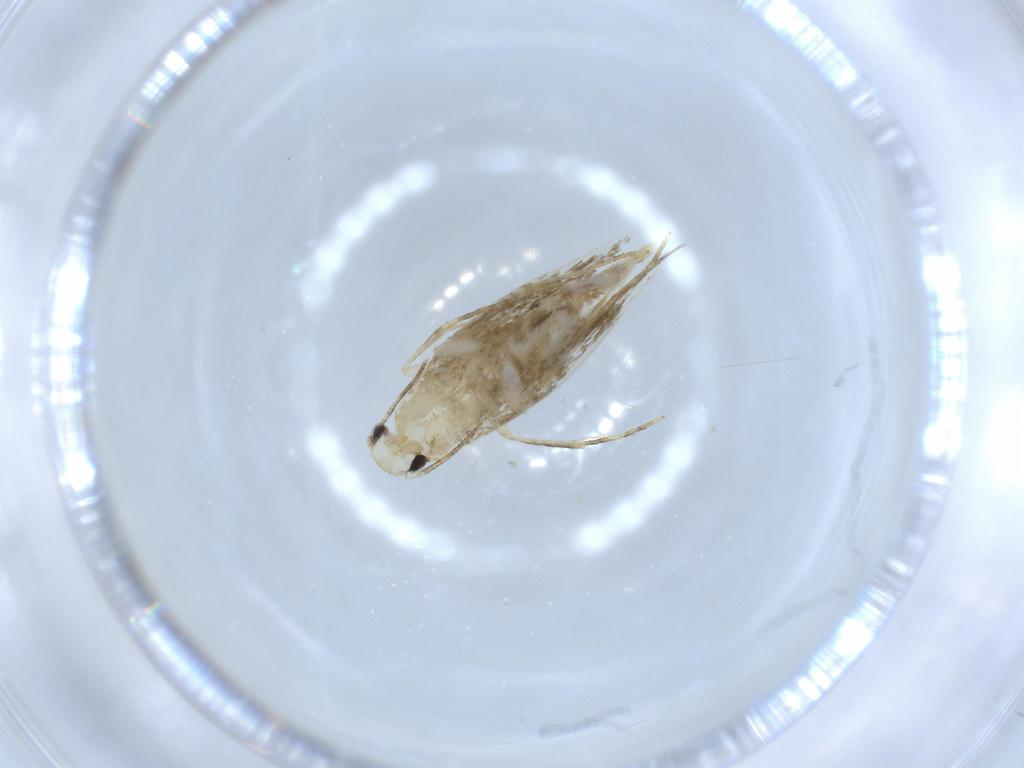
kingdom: Animalia
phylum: Arthropoda
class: Insecta
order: Lepidoptera
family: Tineidae
